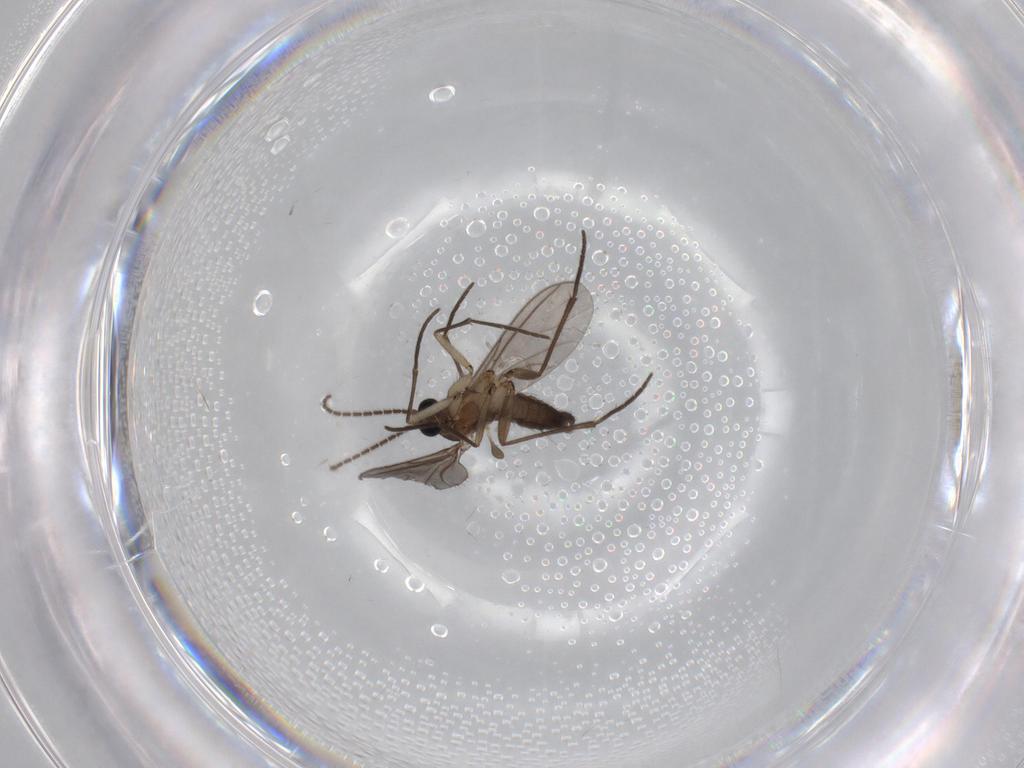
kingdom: Animalia
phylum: Arthropoda
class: Insecta
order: Diptera
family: Sciaridae
